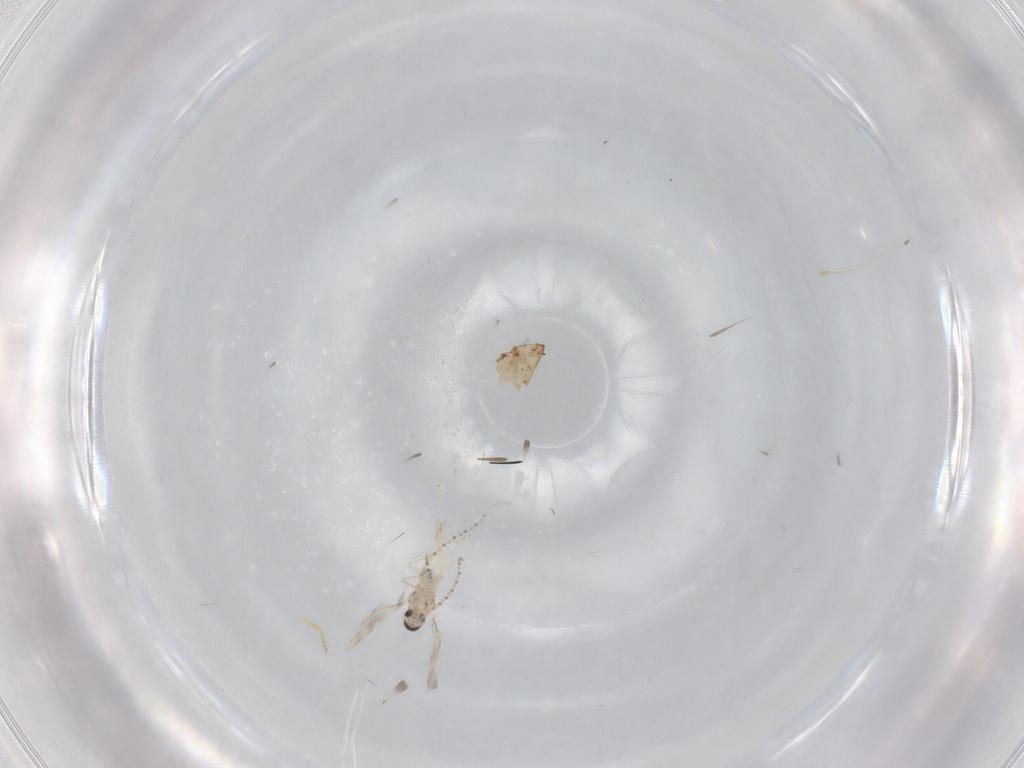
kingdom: Animalia
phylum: Arthropoda
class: Insecta
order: Diptera
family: Cecidomyiidae
